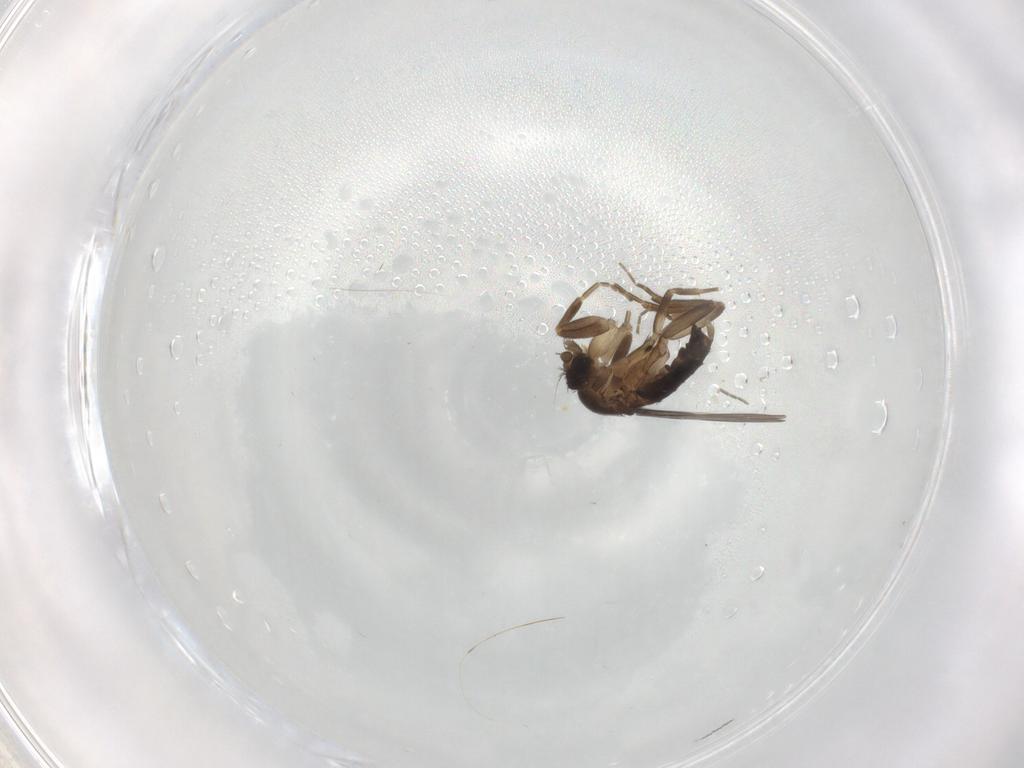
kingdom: Animalia
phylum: Arthropoda
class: Insecta
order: Diptera
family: Phoridae
